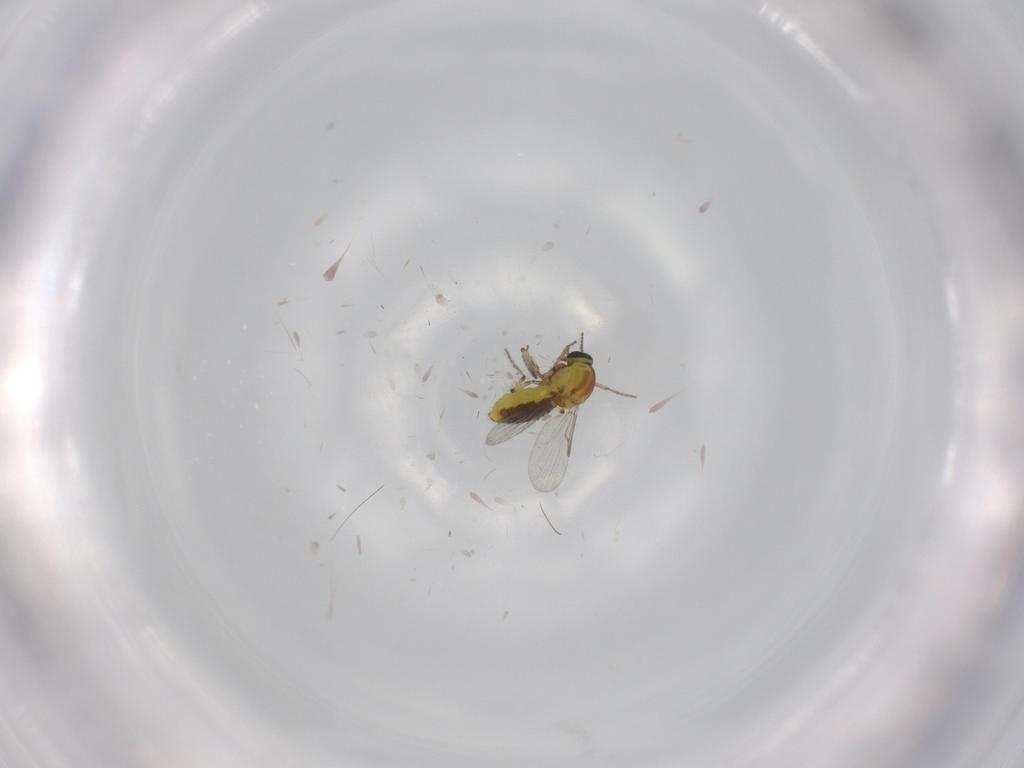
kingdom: Animalia
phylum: Arthropoda
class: Insecta
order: Diptera
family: Ceratopogonidae
